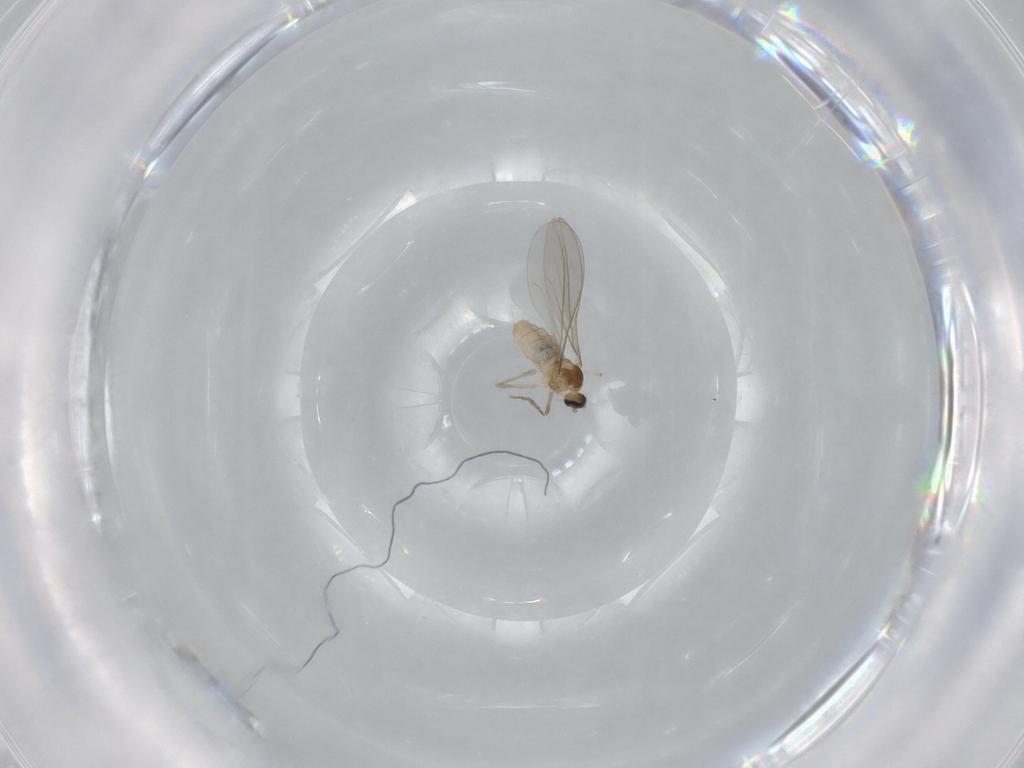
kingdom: Animalia
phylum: Arthropoda
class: Insecta
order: Diptera
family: Cecidomyiidae
